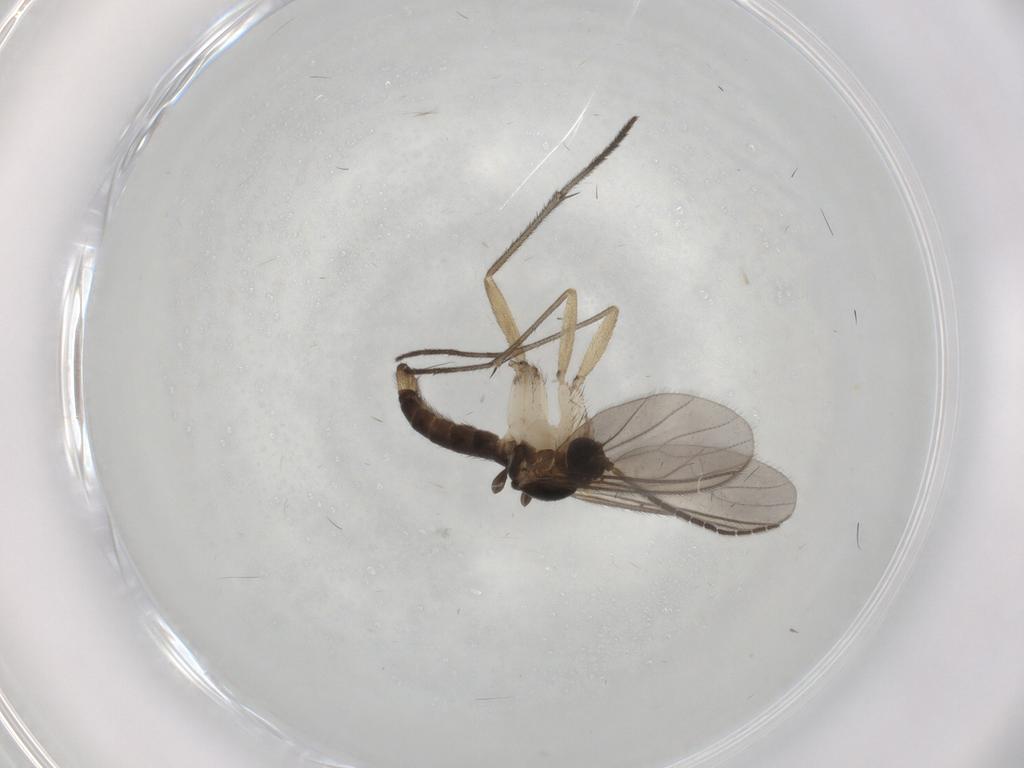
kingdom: Animalia
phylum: Arthropoda
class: Insecta
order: Diptera
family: Sciaridae
